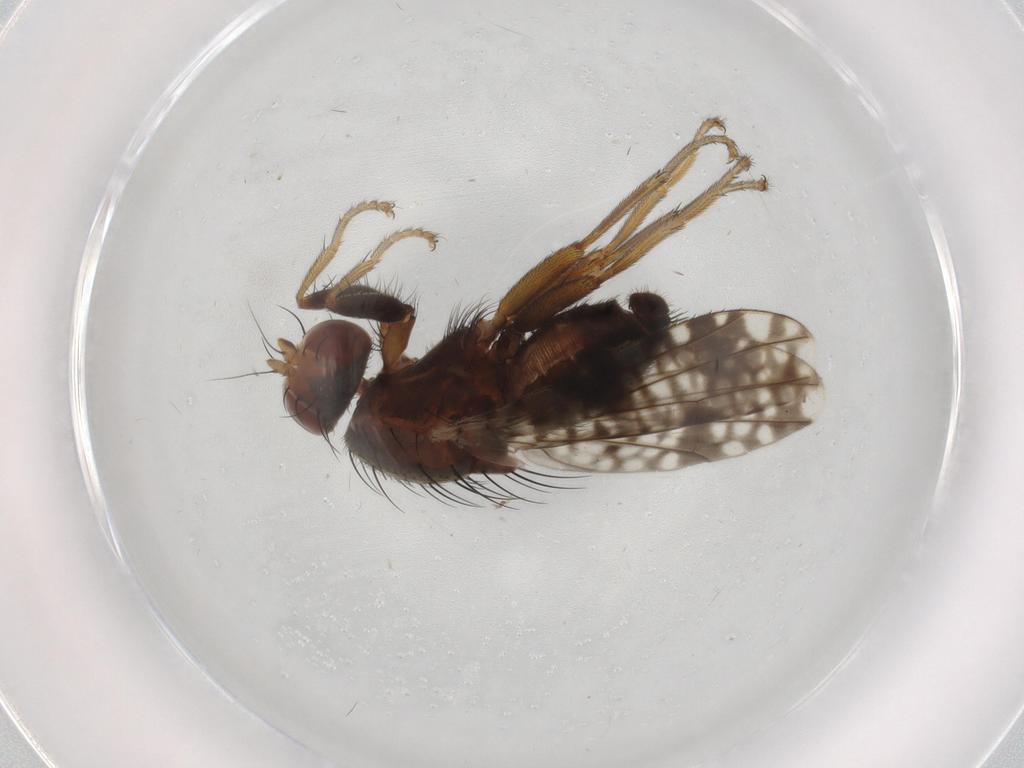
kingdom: Animalia
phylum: Arthropoda
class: Insecta
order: Diptera
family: Tephritidae
